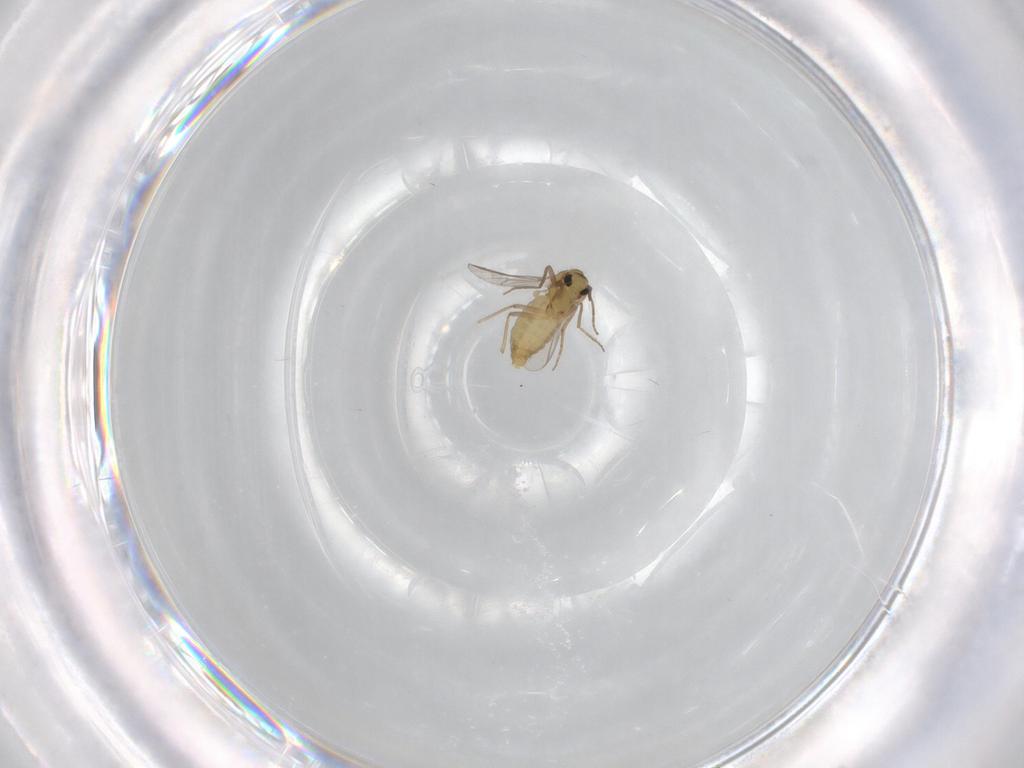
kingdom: Animalia
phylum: Arthropoda
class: Insecta
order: Diptera
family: Chironomidae
